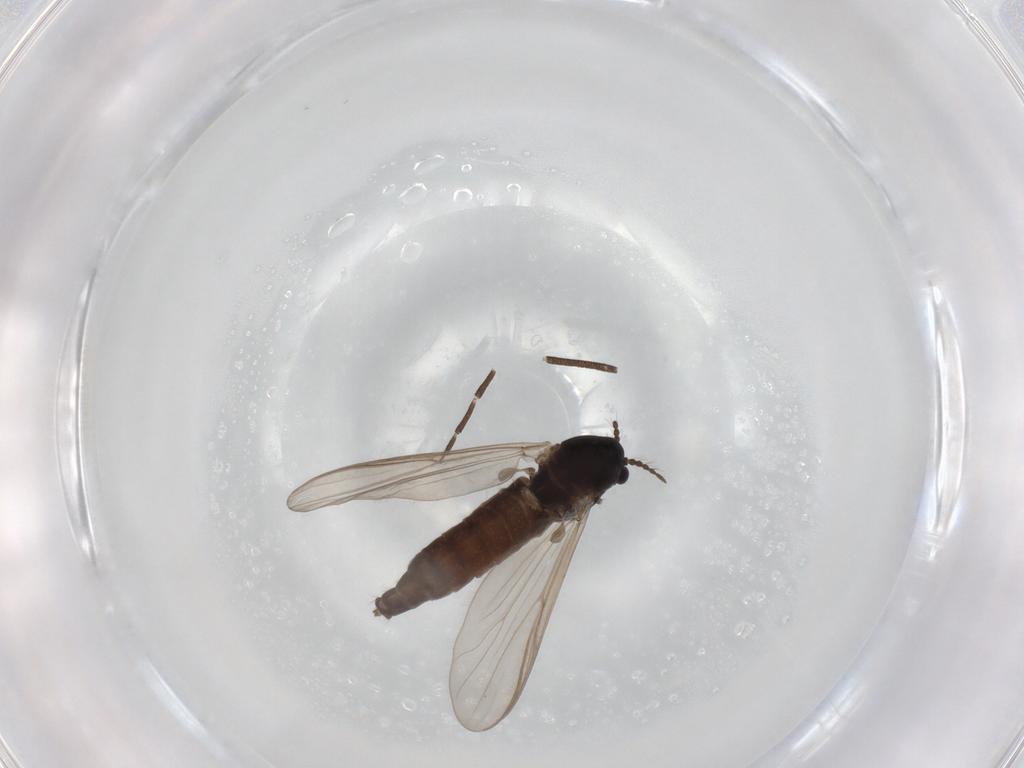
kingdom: Animalia
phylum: Arthropoda
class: Insecta
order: Diptera
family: Chironomidae
